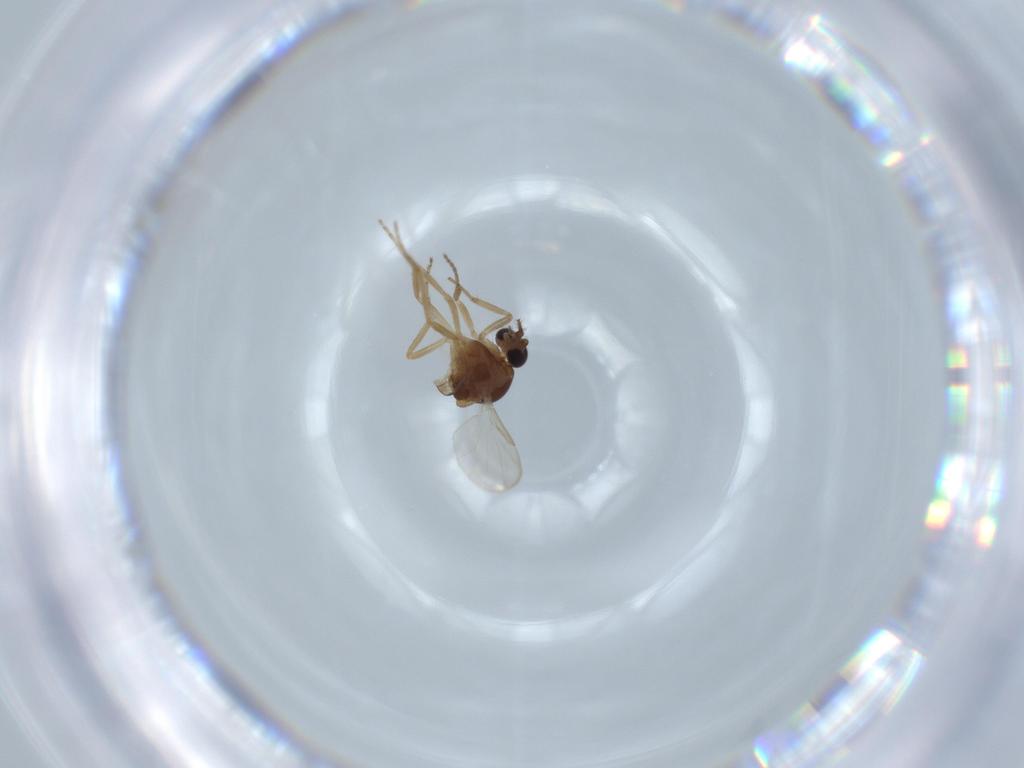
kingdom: Animalia
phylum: Arthropoda
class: Insecta
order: Diptera
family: Ceratopogonidae
